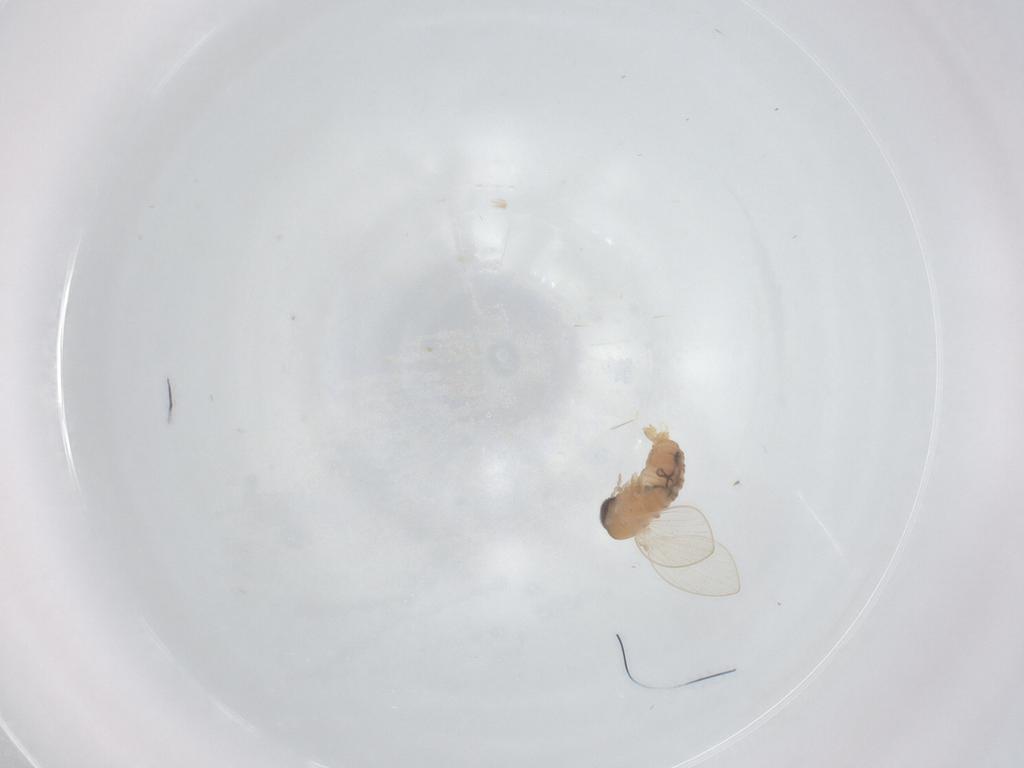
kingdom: Animalia
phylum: Arthropoda
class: Insecta
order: Diptera
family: Psychodidae
